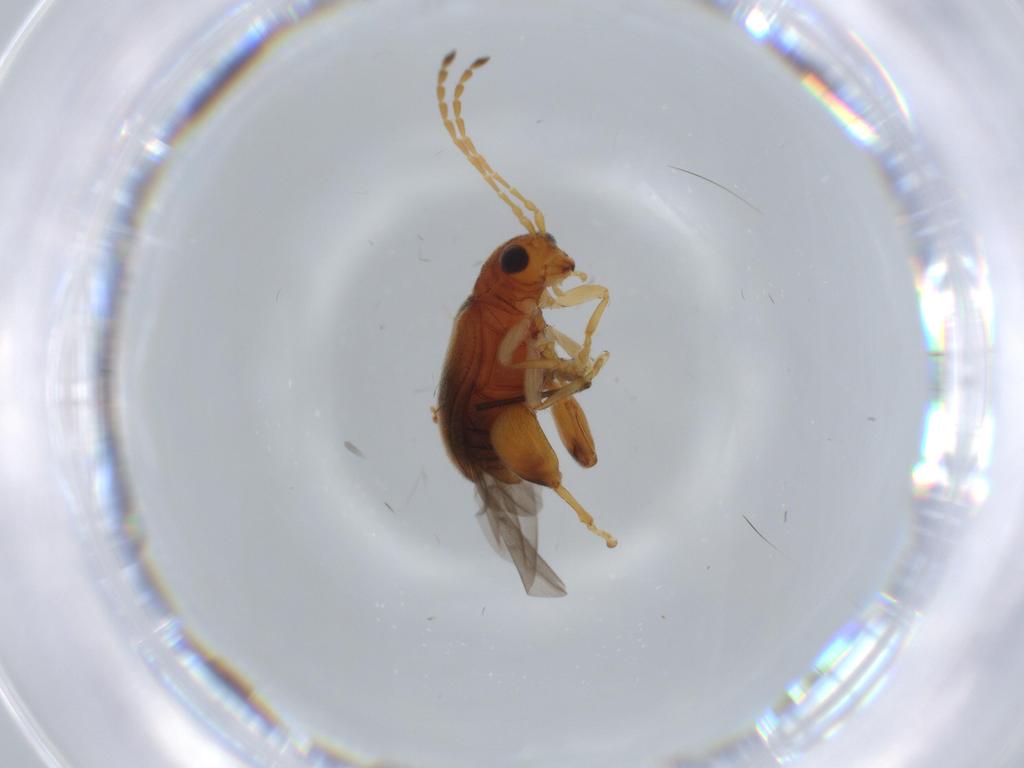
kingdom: Animalia
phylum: Arthropoda
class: Insecta
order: Coleoptera
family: Chrysomelidae
